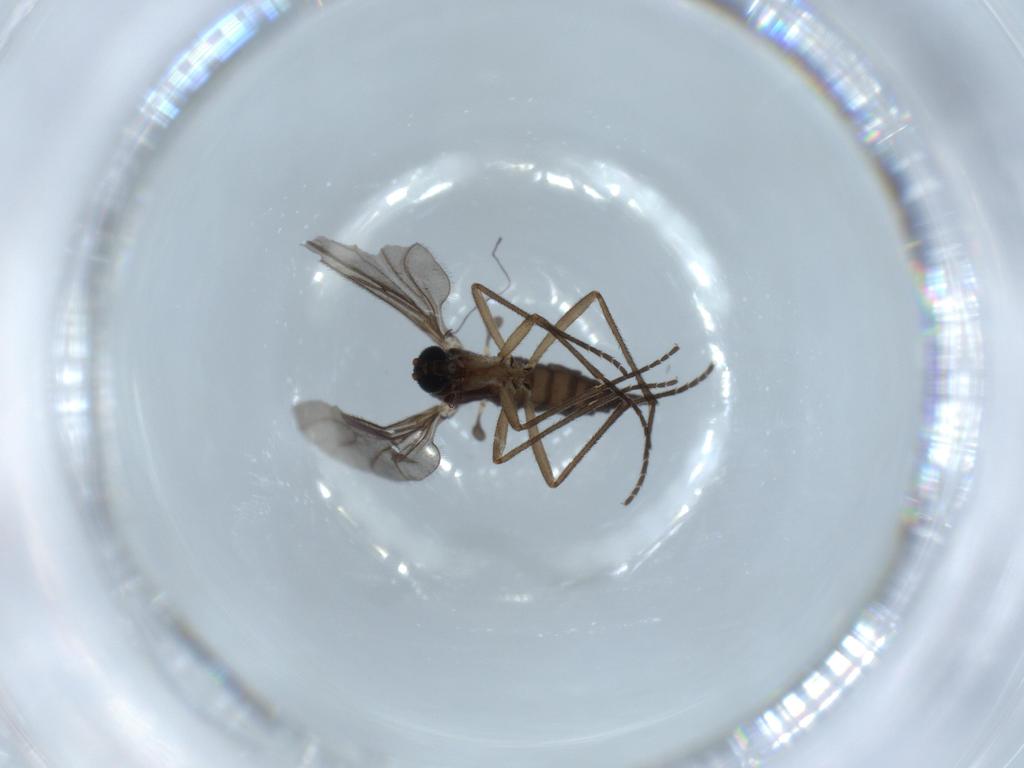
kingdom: Animalia
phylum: Arthropoda
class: Insecta
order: Diptera
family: Sciaridae
